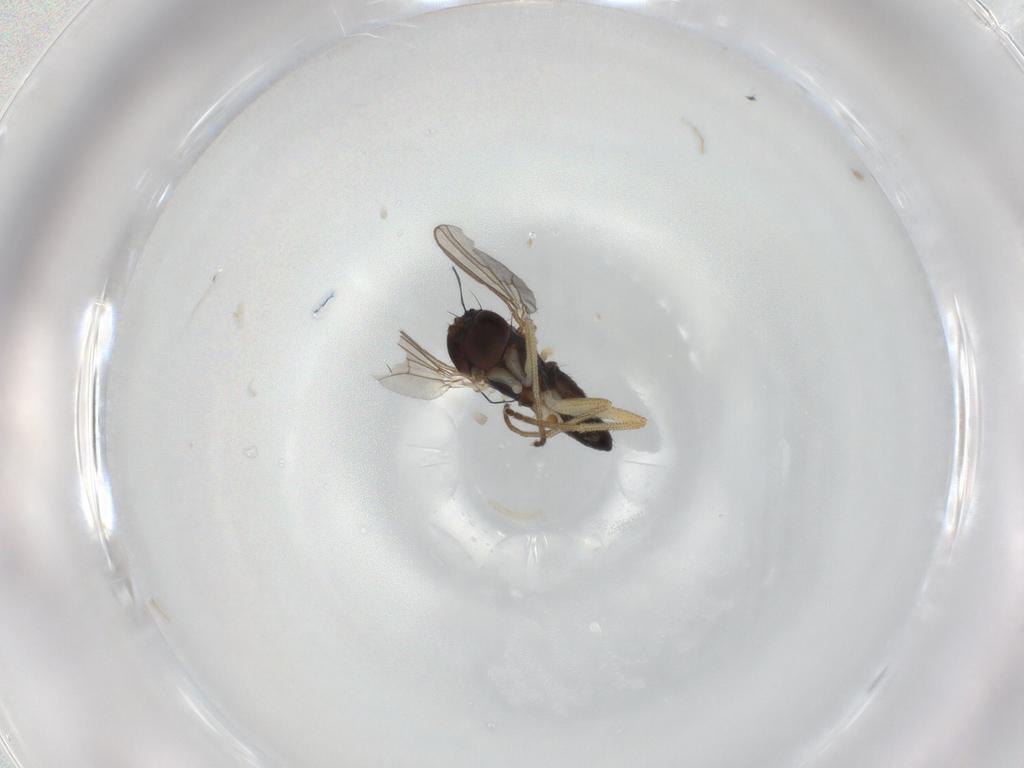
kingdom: Animalia
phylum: Arthropoda
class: Insecta
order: Diptera
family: Dolichopodidae
